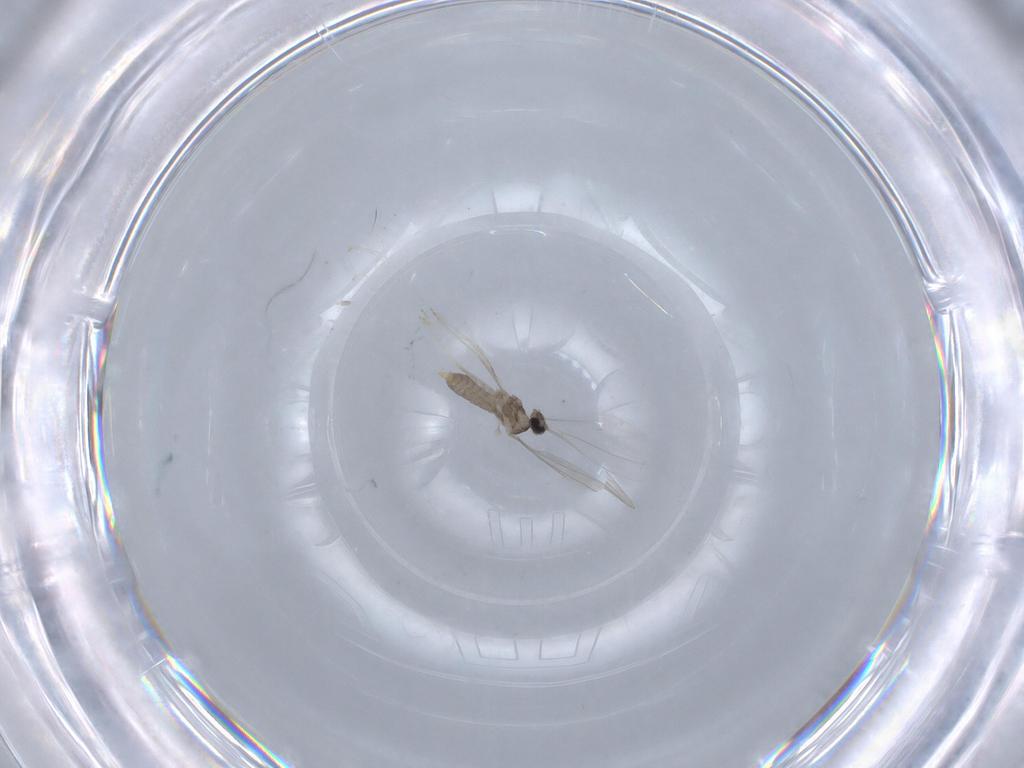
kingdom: Animalia
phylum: Arthropoda
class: Insecta
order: Diptera
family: Cecidomyiidae
